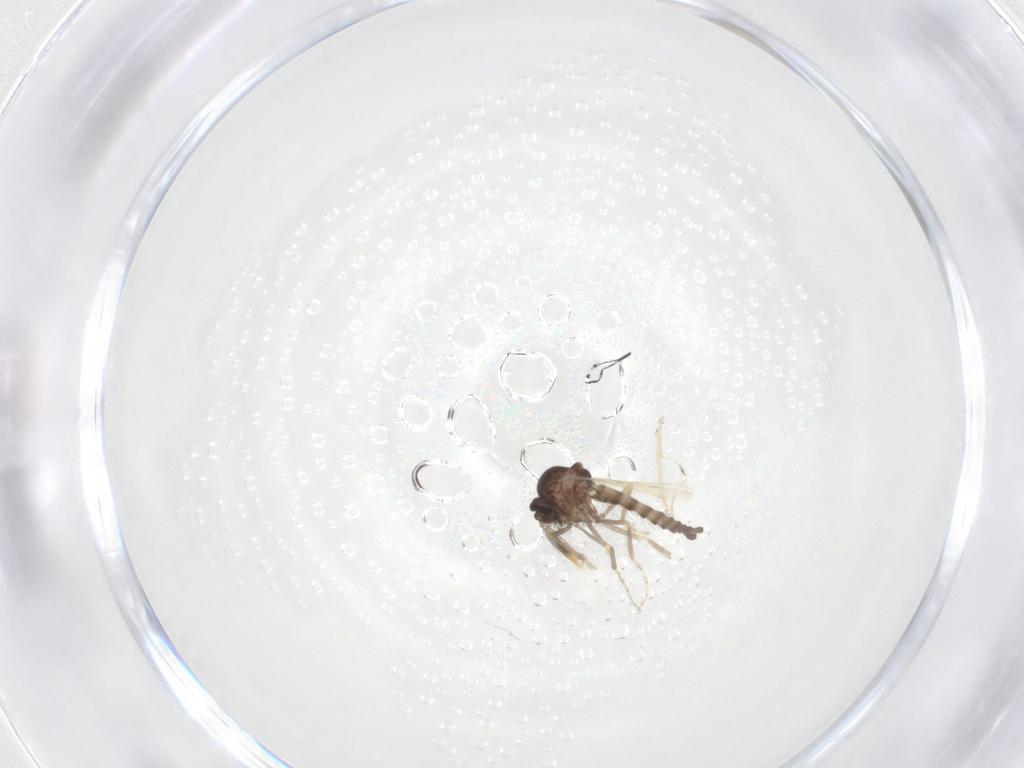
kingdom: Animalia
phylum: Arthropoda
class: Insecta
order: Diptera
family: Ceratopogonidae
